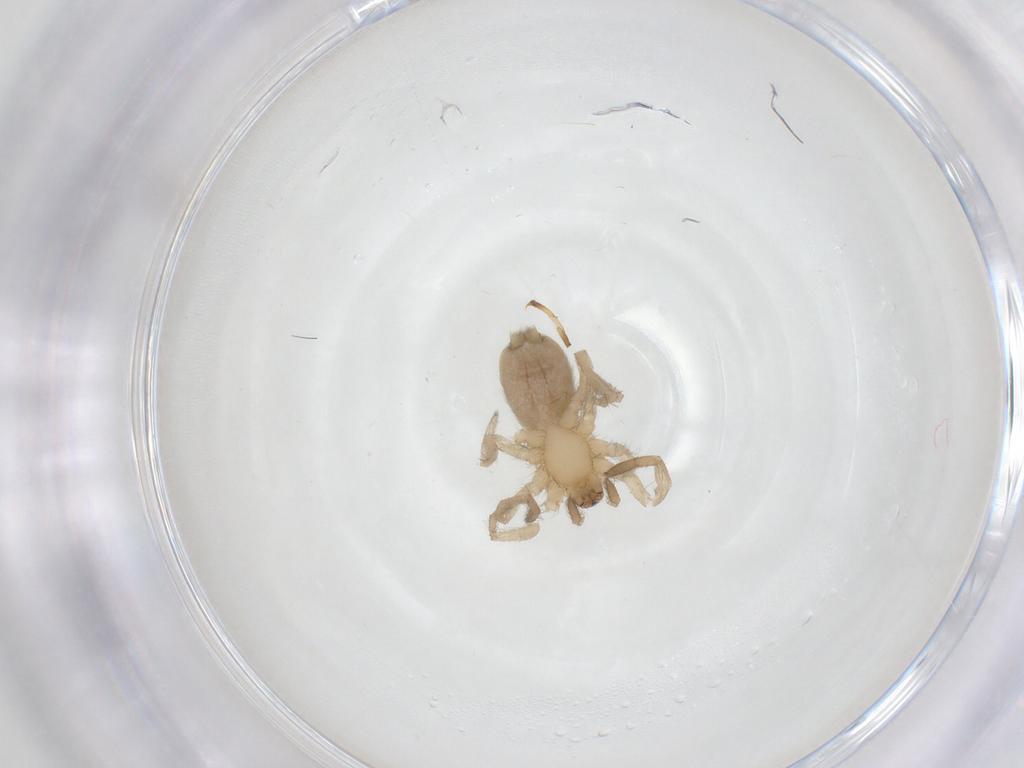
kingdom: Animalia
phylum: Arthropoda
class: Arachnida
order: Araneae
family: Gnaphosidae
